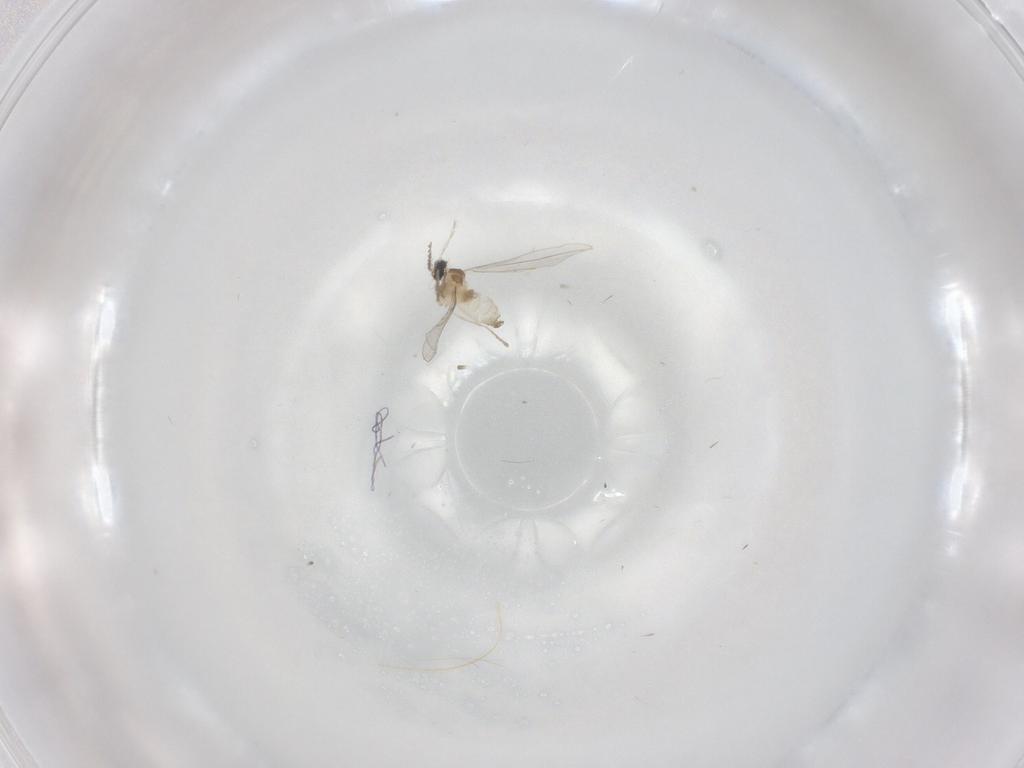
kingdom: Animalia
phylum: Arthropoda
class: Insecta
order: Diptera
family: Cecidomyiidae
